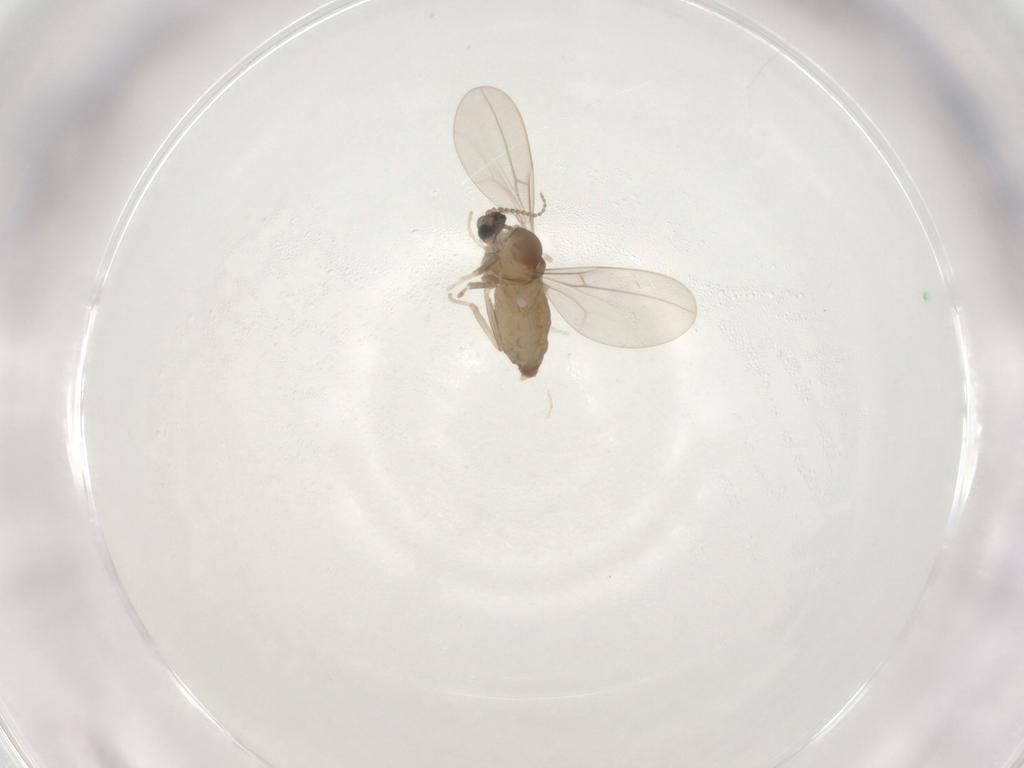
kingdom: Animalia
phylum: Arthropoda
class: Insecta
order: Diptera
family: Cecidomyiidae
